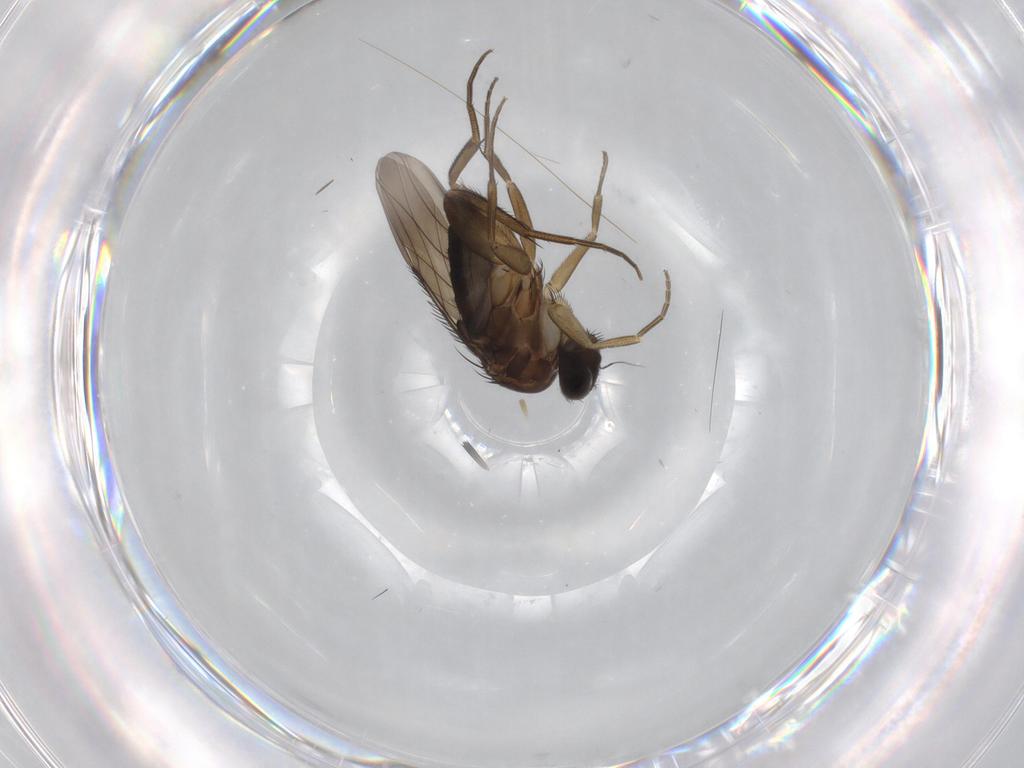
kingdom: Animalia
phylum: Arthropoda
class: Insecta
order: Diptera
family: Phoridae
